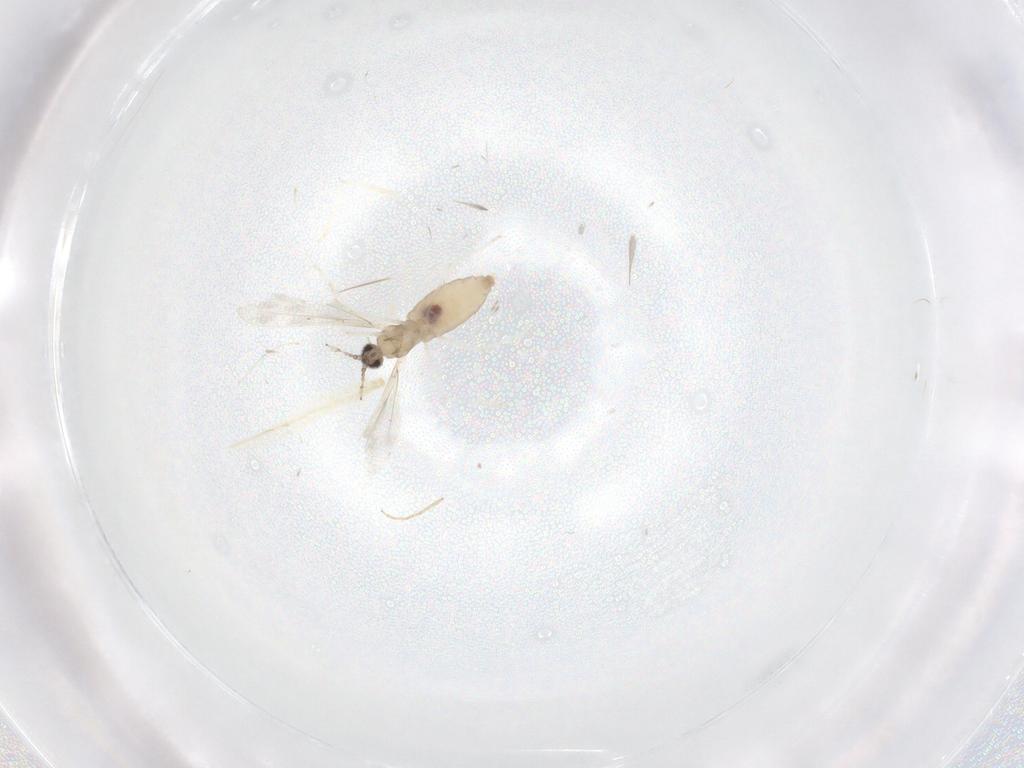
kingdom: Animalia
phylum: Arthropoda
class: Insecta
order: Diptera
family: Cecidomyiidae
